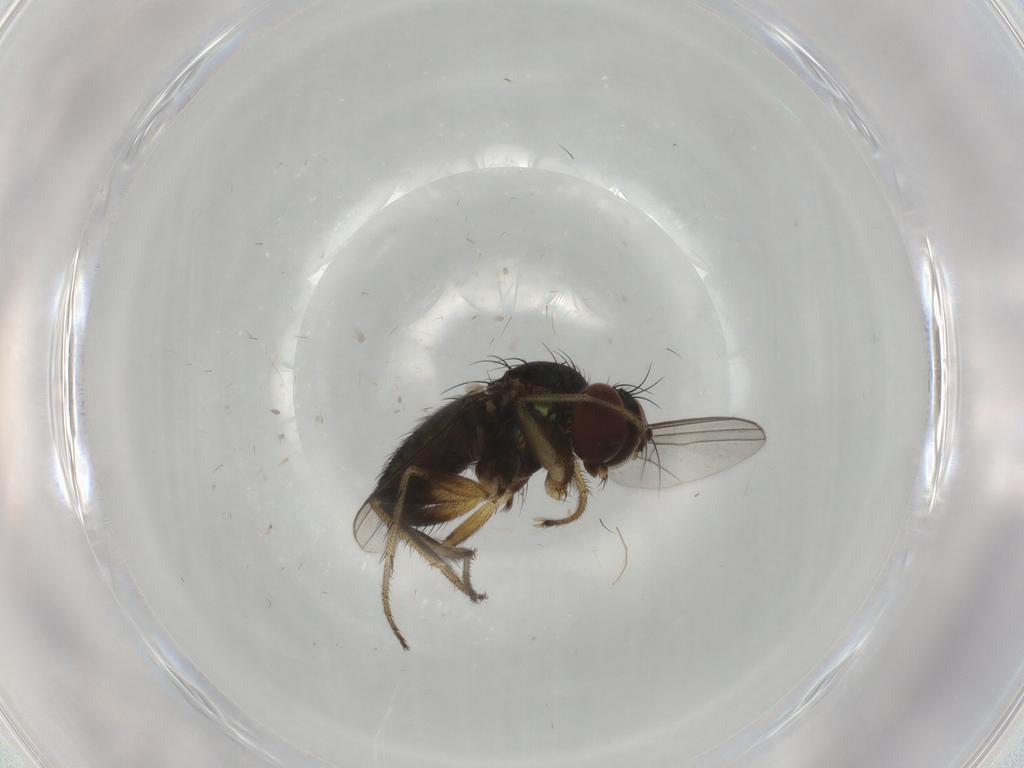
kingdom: Animalia
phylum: Arthropoda
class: Insecta
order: Diptera
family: Dolichopodidae
